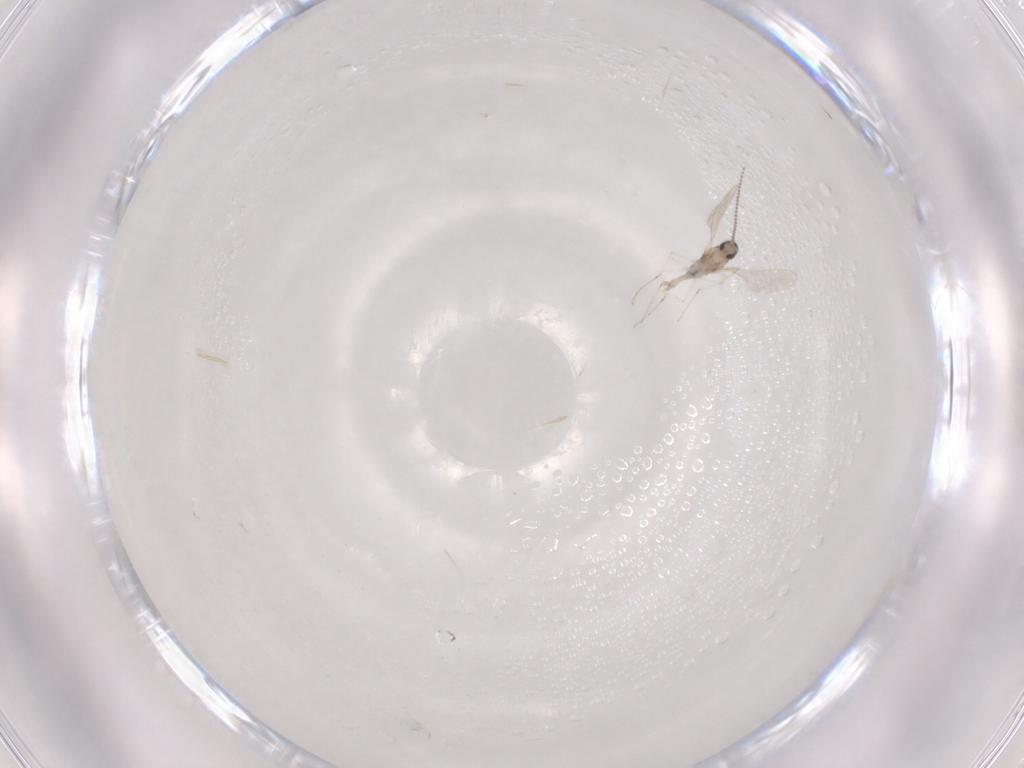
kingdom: Animalia
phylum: Arthropoda
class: Insecta
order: Diptera
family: Cecidomyiidae
